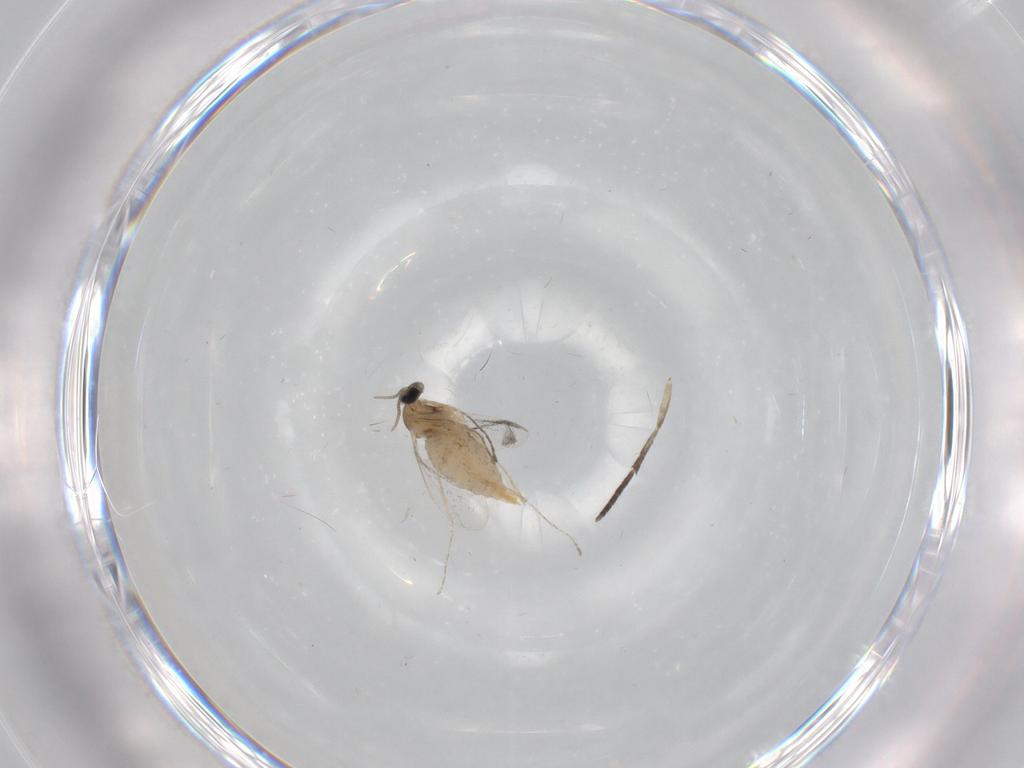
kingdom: Animalia
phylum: Arthropoda
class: Insecta
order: Diptera
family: Cecidomyiidae
